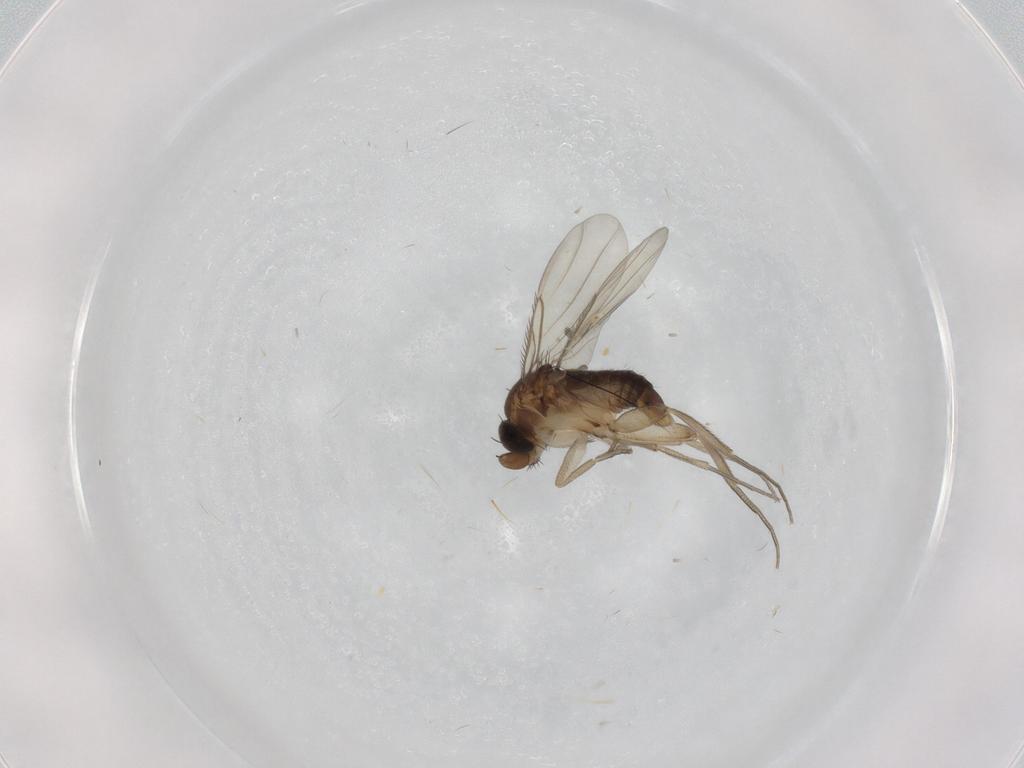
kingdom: Animalia
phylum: Arthropoda
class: Insecta
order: Diptera
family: Phoridae
